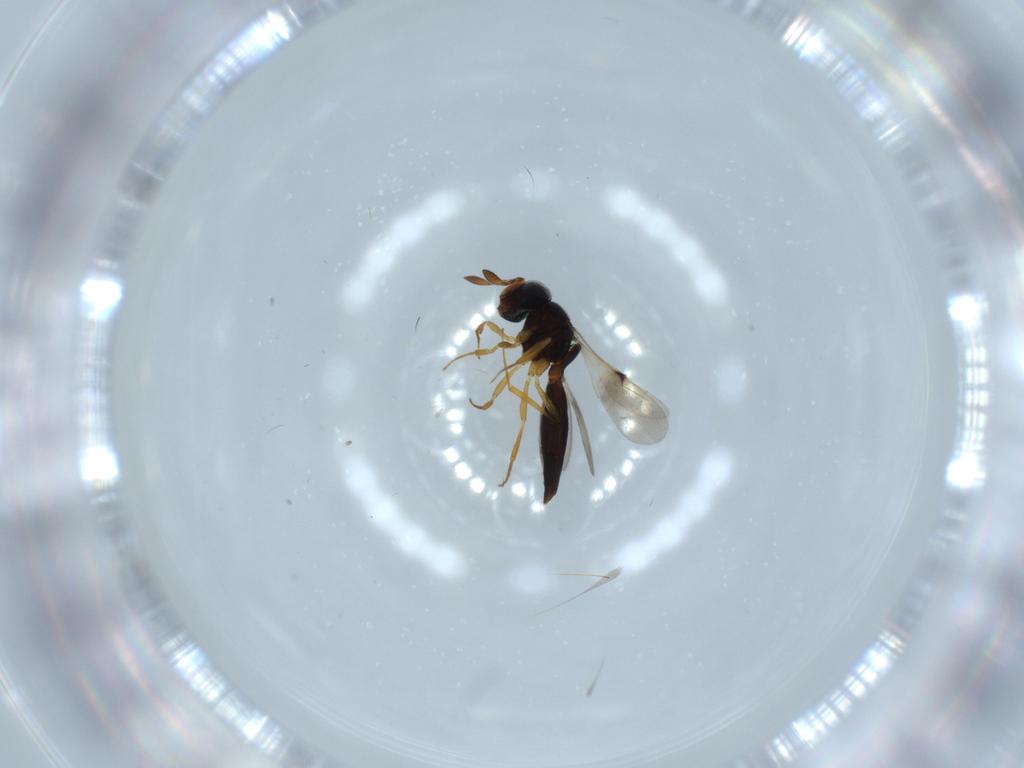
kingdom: Animalia
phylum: Arthropoda
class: Insecta
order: Hymenoptera
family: Scelionidae
